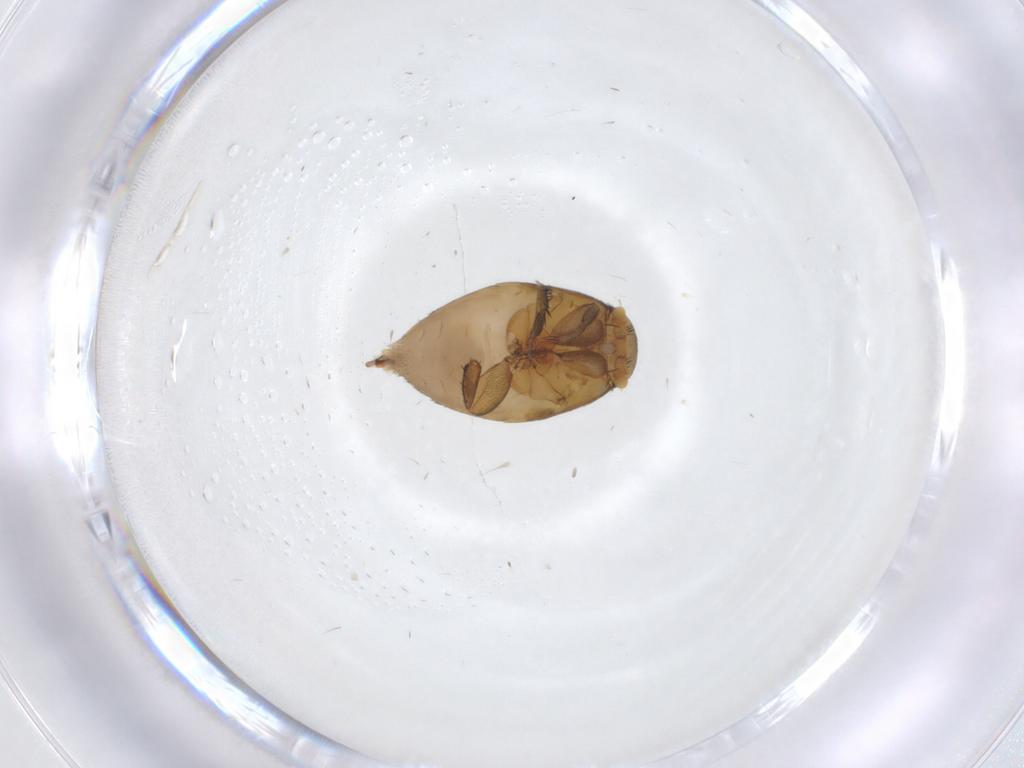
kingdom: Animalia
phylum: Arthropoda
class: Insecta
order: Diptera
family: Phoridae
